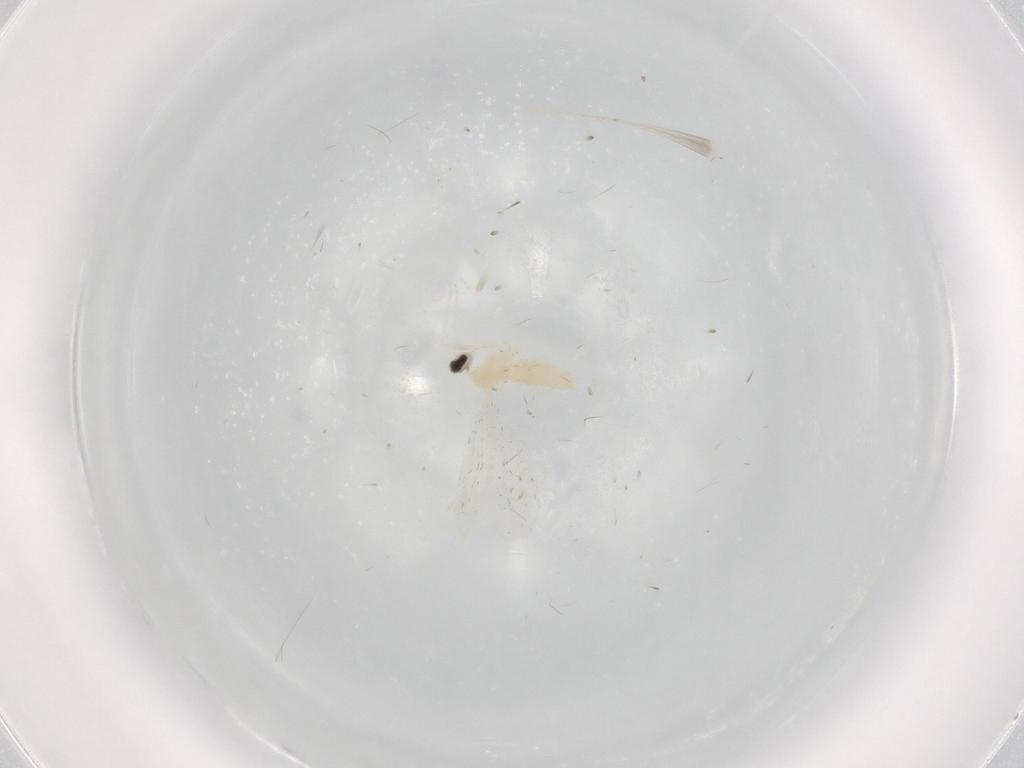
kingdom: Animalia
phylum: Arthropoda
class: Insecta
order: Diptera
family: Cecidomyiidae
